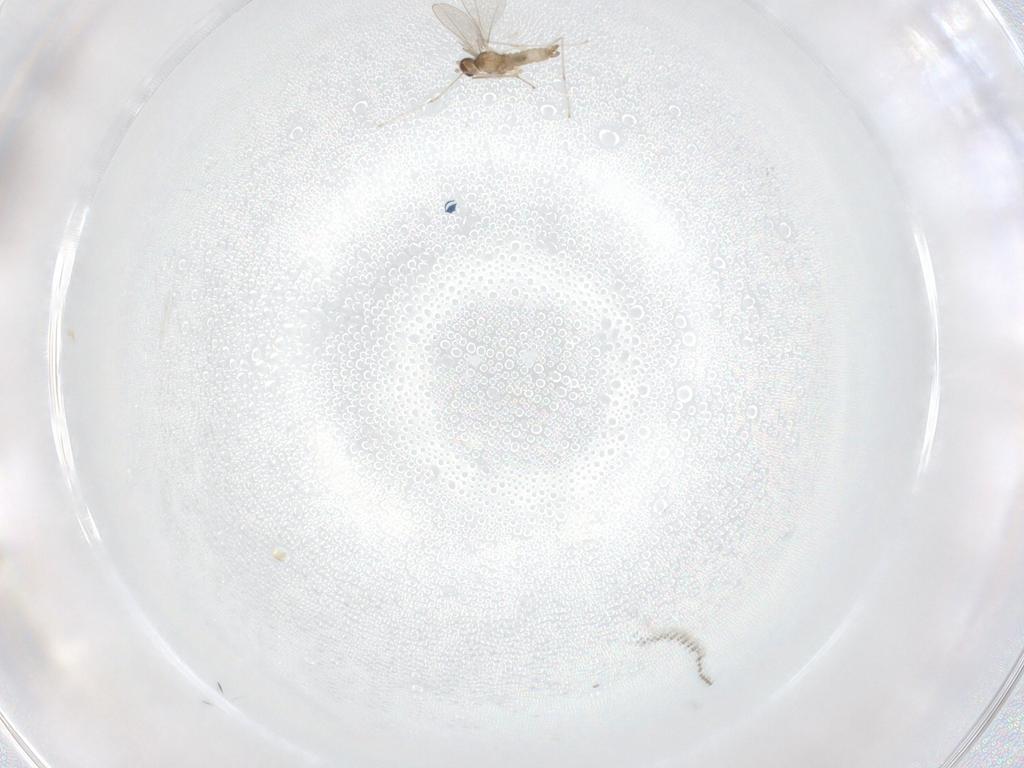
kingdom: Animalia
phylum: Arthropoda
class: Insecta
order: Diptera
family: Cecidomyiidae
